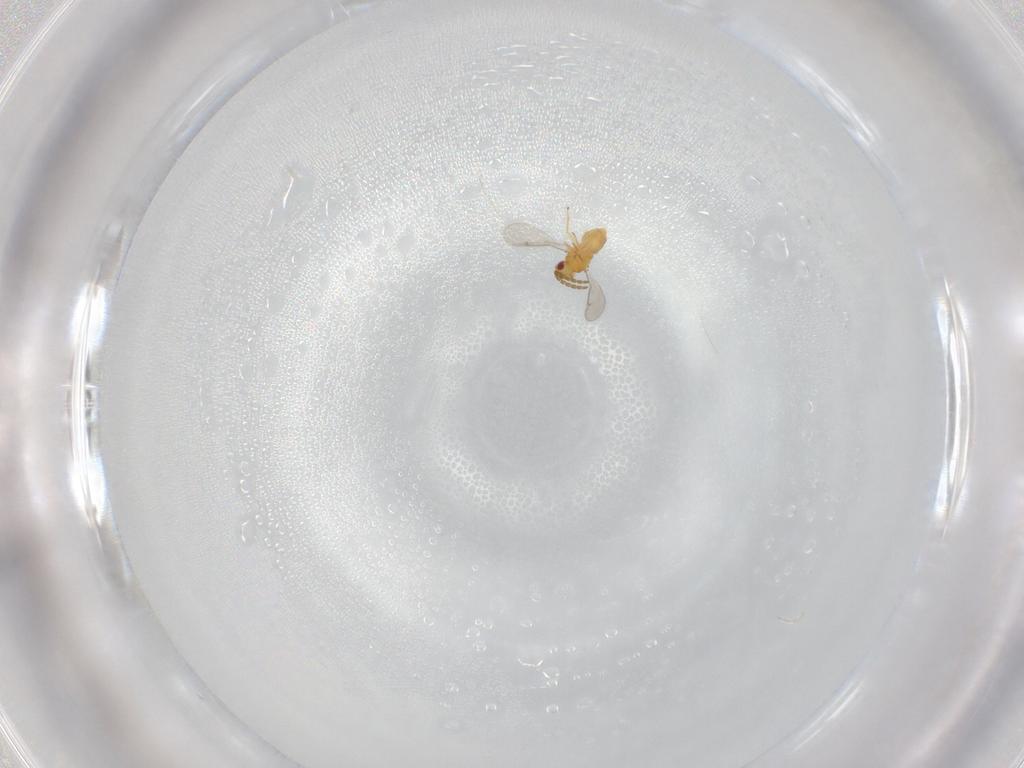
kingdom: Animalia
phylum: Arthropoda
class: Insecta
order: Hymenoptera
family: Aphelinidae
